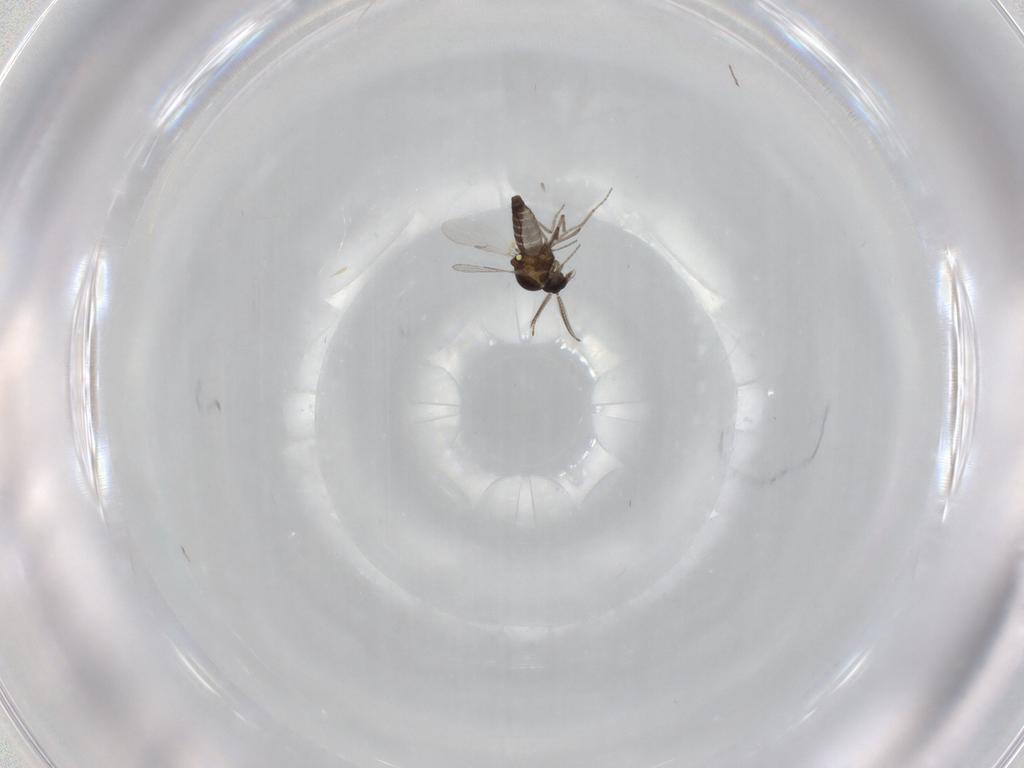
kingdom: Animalia
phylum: Arthropoda
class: Insecta
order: Diptera
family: Ceratopogonidae
